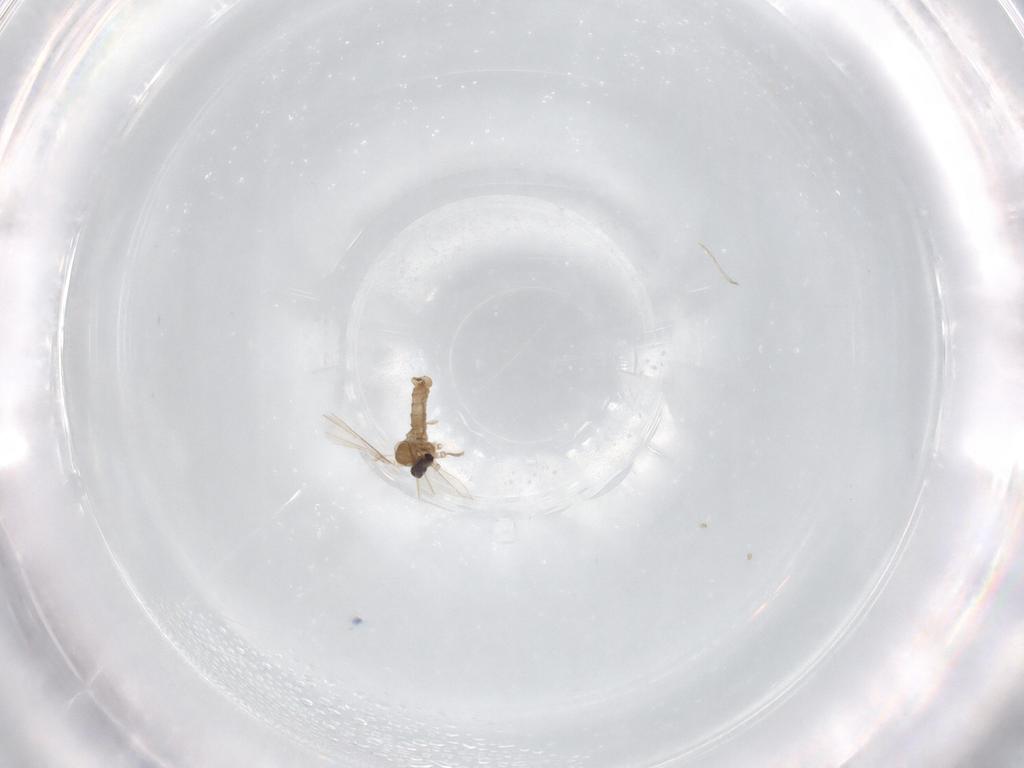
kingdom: Animalia
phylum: Arthropoda
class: Insecta
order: Diptera
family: Cecidomyiidae
